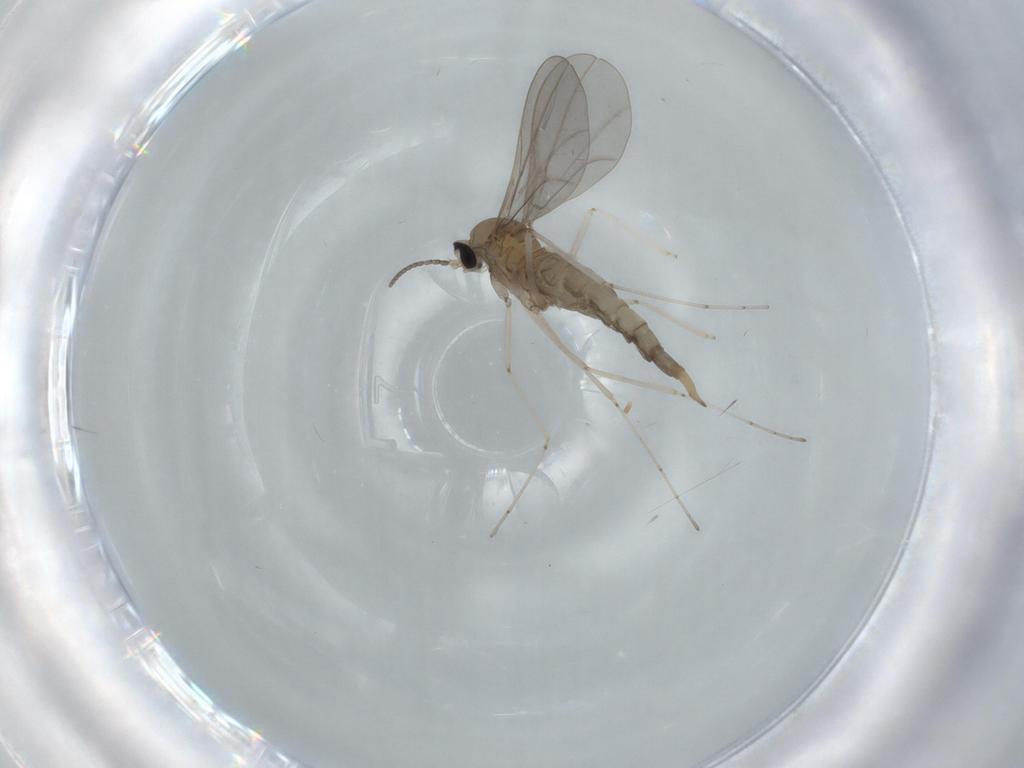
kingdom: Animalia
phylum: Arthropoda
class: Insecta
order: Diptera
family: Cecidomyiidae
